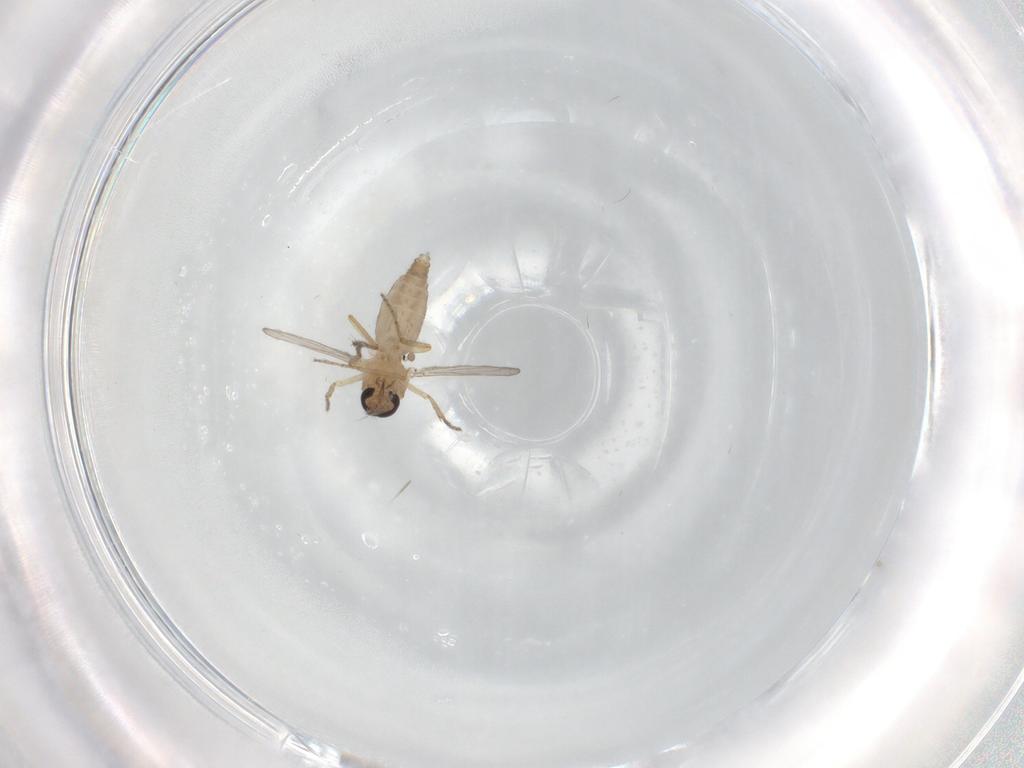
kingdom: Animalia
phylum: Arthropoda
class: Insecta
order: Diptera
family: Ceratopogonidae
